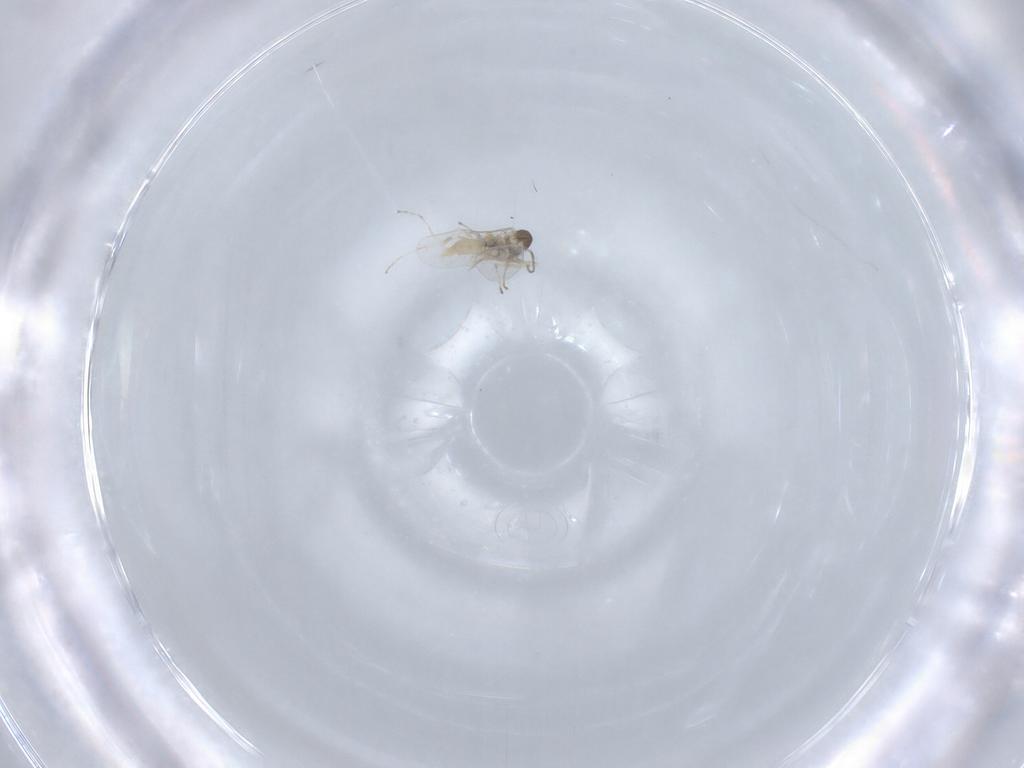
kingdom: Animalia
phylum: Arthropoda
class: Insecta
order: Diptera
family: Cecidomyiidae
